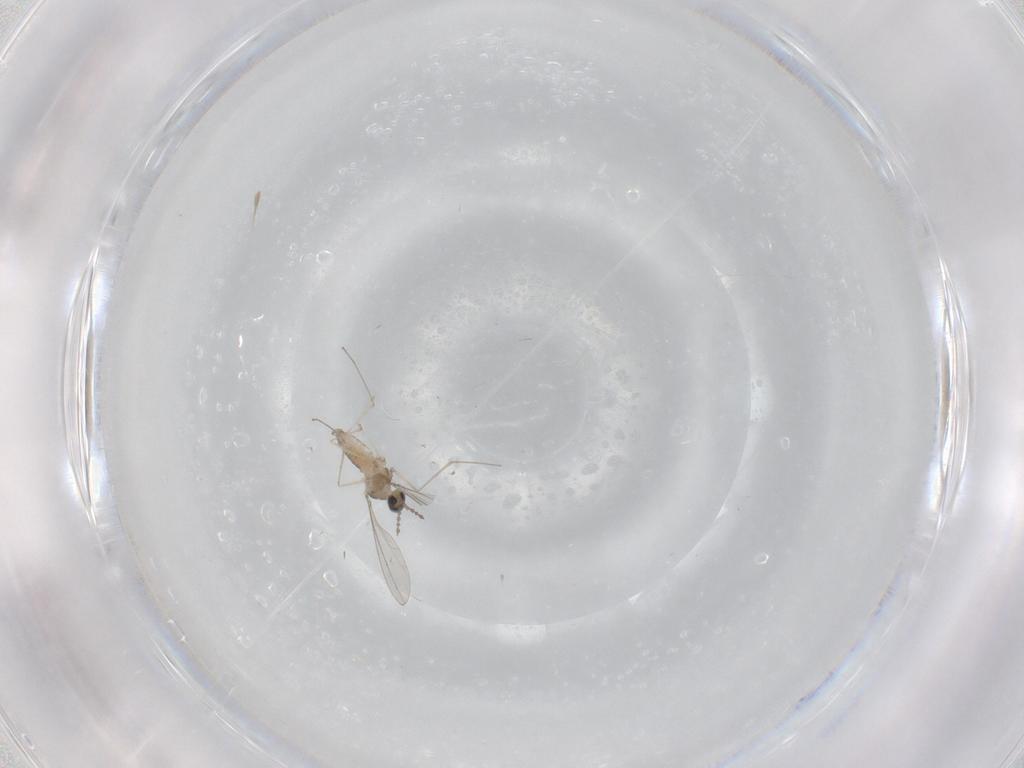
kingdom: Animalia
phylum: Arthropoda
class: Insecta
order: Diptera
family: Cecidomyiidae
